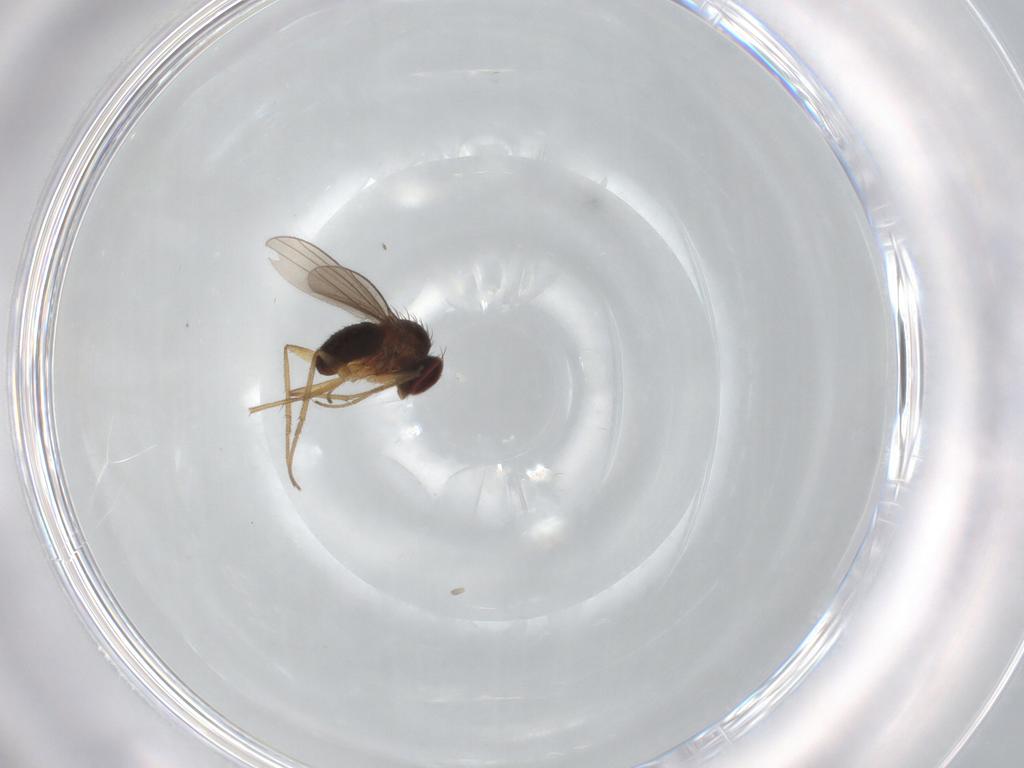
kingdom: Animalia
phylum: Arthropoda
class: Insecta
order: Diptera
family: Dolichopodidae
